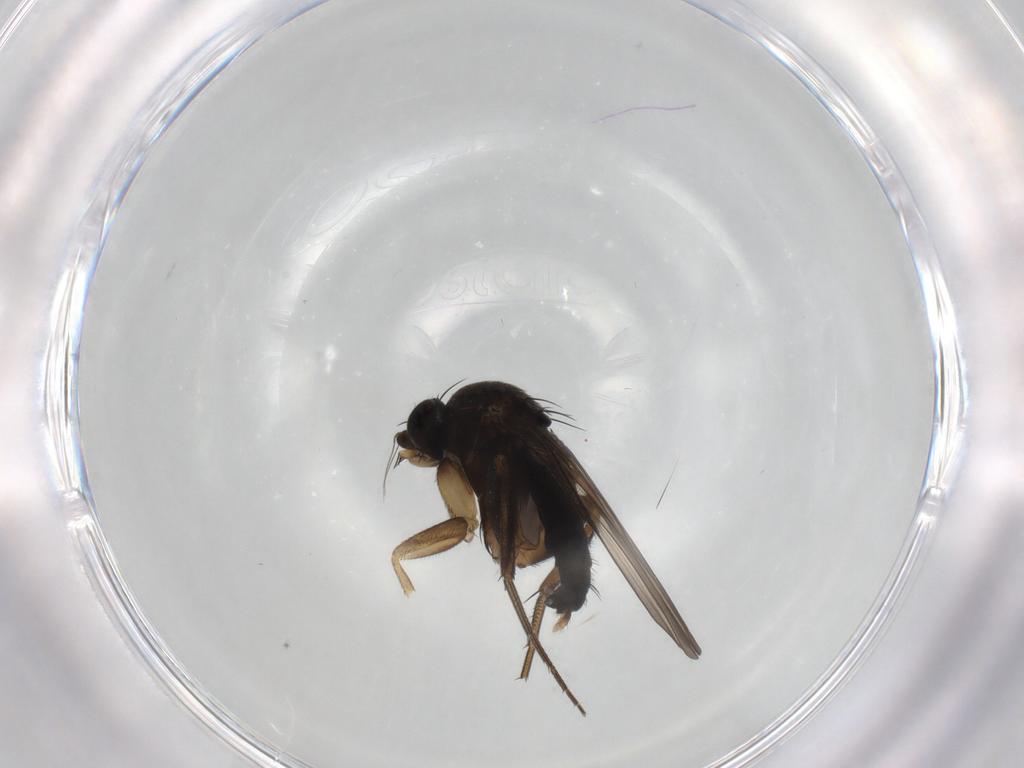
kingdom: Animalia
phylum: Arthropoda
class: Insecta
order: Diptera
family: Phoridae
